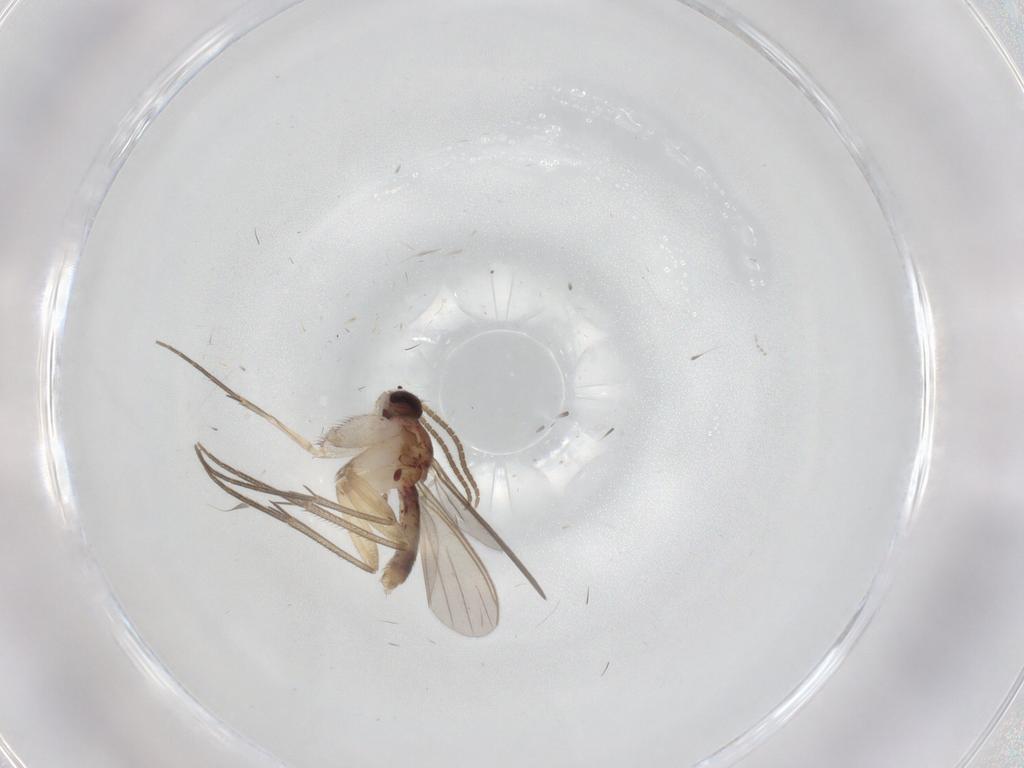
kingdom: Animalia
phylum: Arthropoda
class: Insecta
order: Diptera
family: Mycetophilidae
